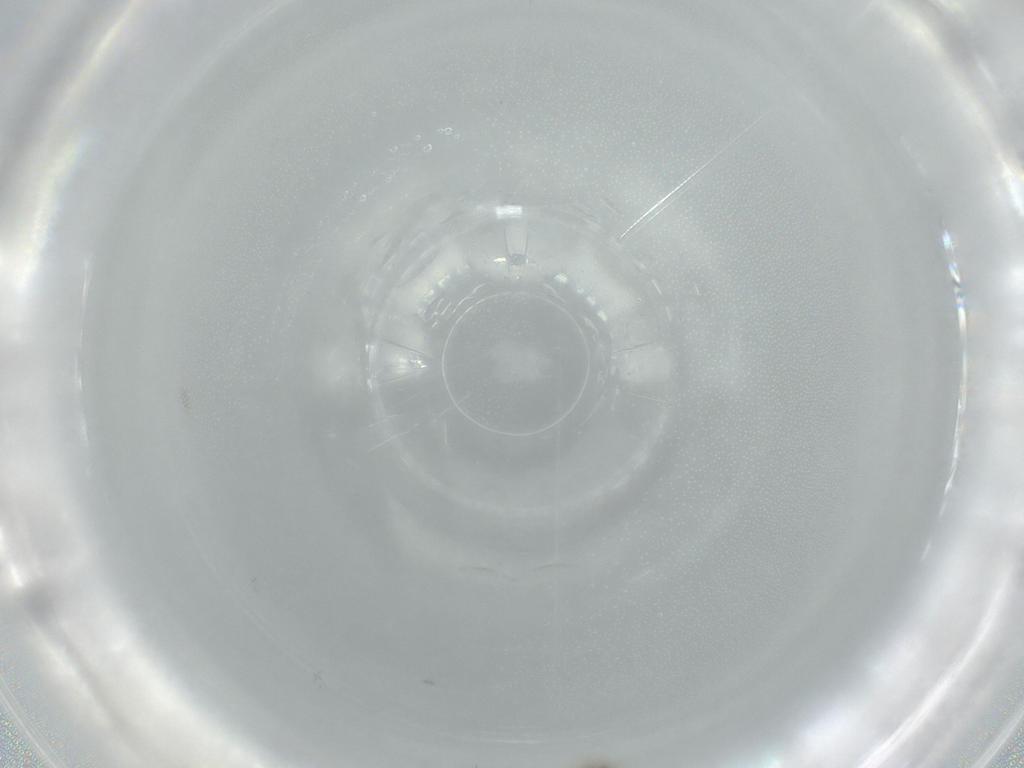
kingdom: Animalia
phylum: Arthropoda
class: Insecta
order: Diptera
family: Cecidomyiidae
